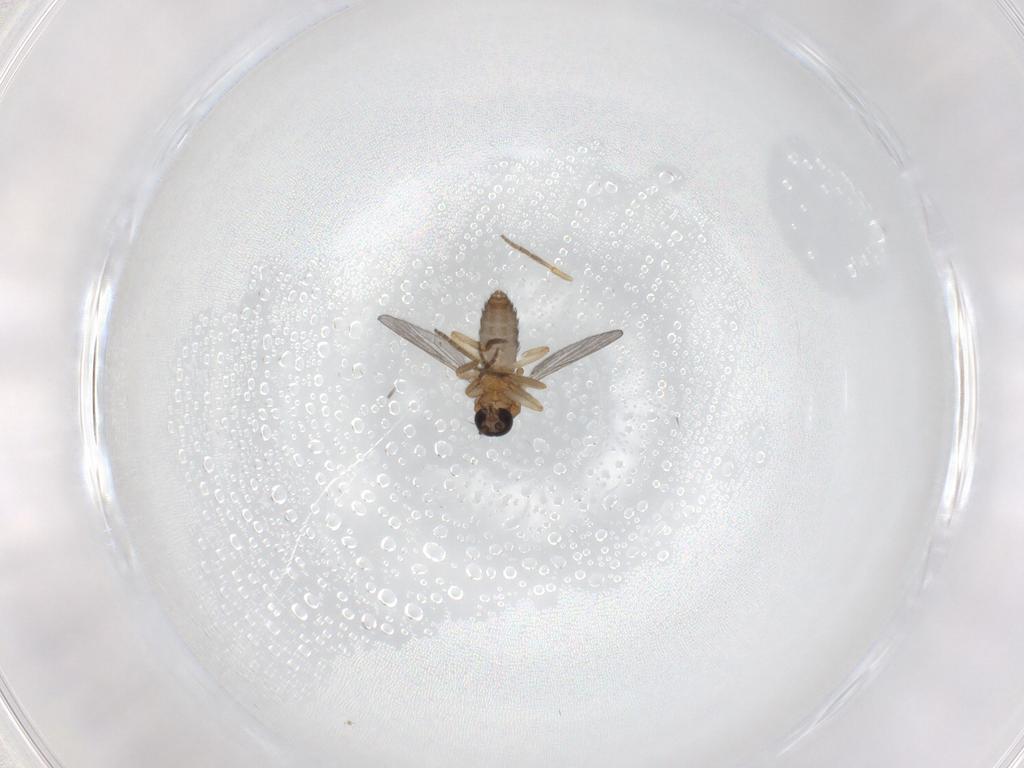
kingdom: Animalia
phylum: Arthropoda
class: Insecta
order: Diptera
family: Ceratopogonidae
